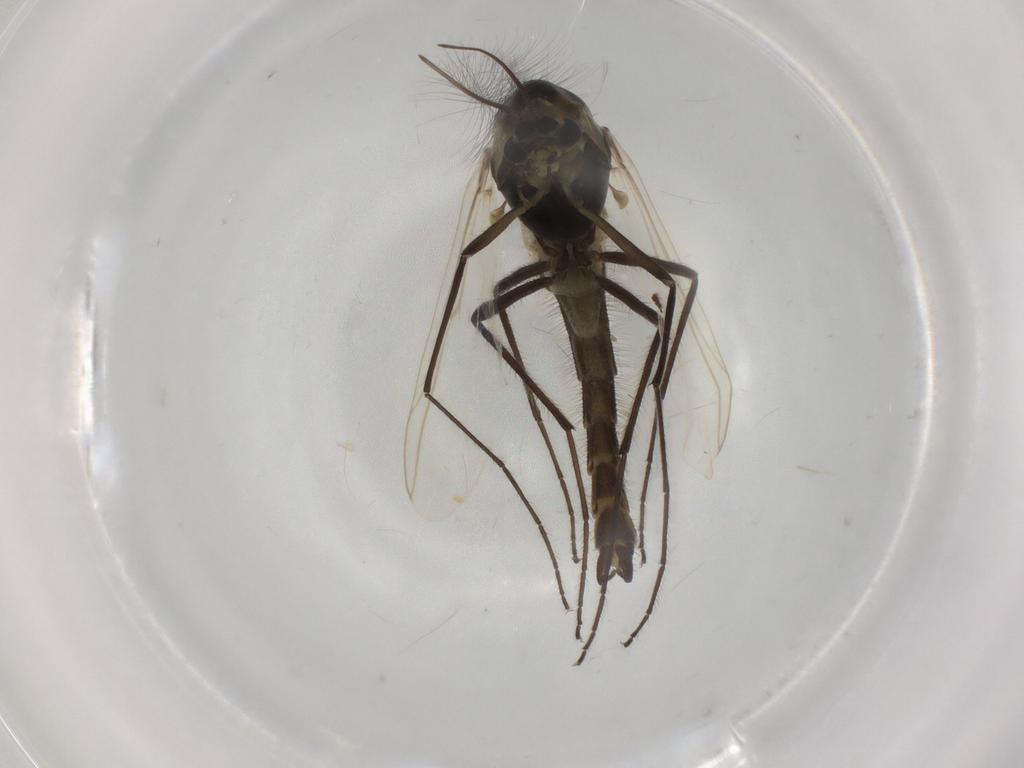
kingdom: Animalia
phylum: Arthropoda
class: Insecta
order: Diptera
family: Chironomidae
